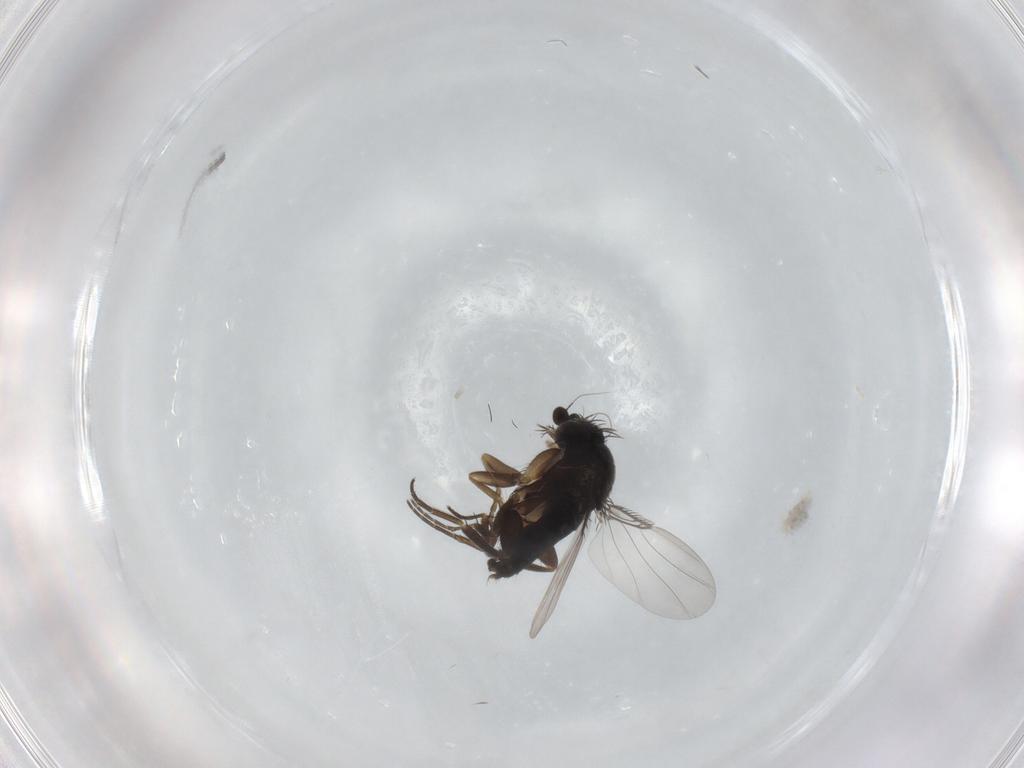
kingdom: Animalia
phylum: Arthropoda
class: Insecta
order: Diptera
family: Phoridae
